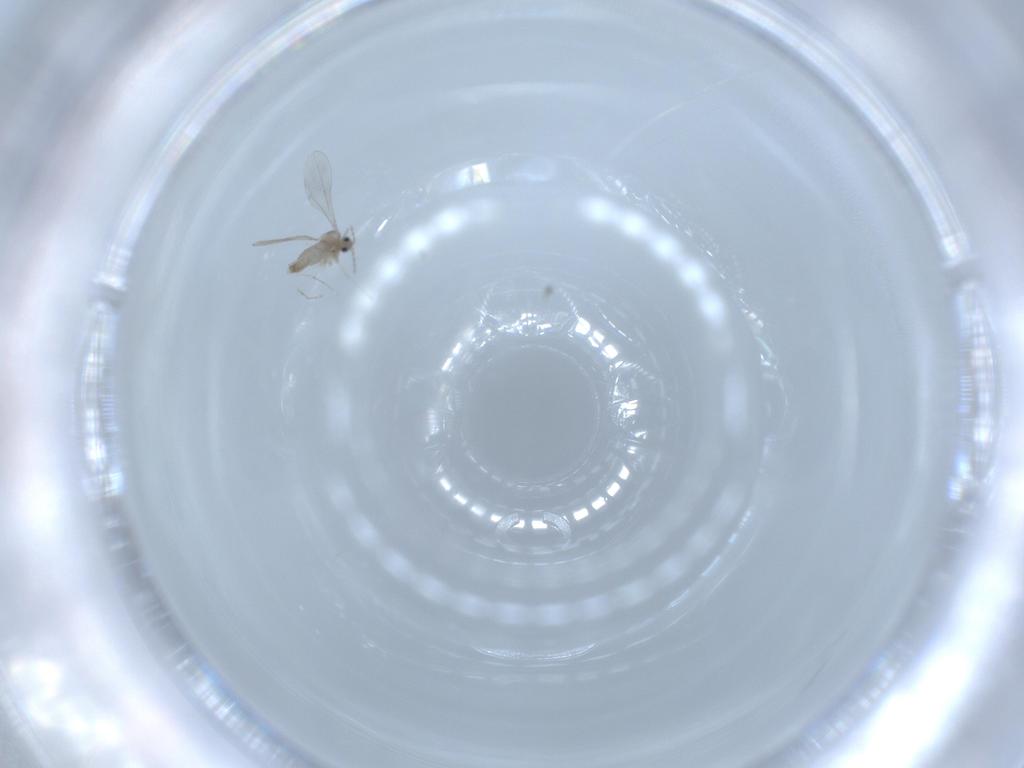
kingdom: Animalia
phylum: Arthropoda
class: Insecta
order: Diptera
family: Cecidomyiidae
